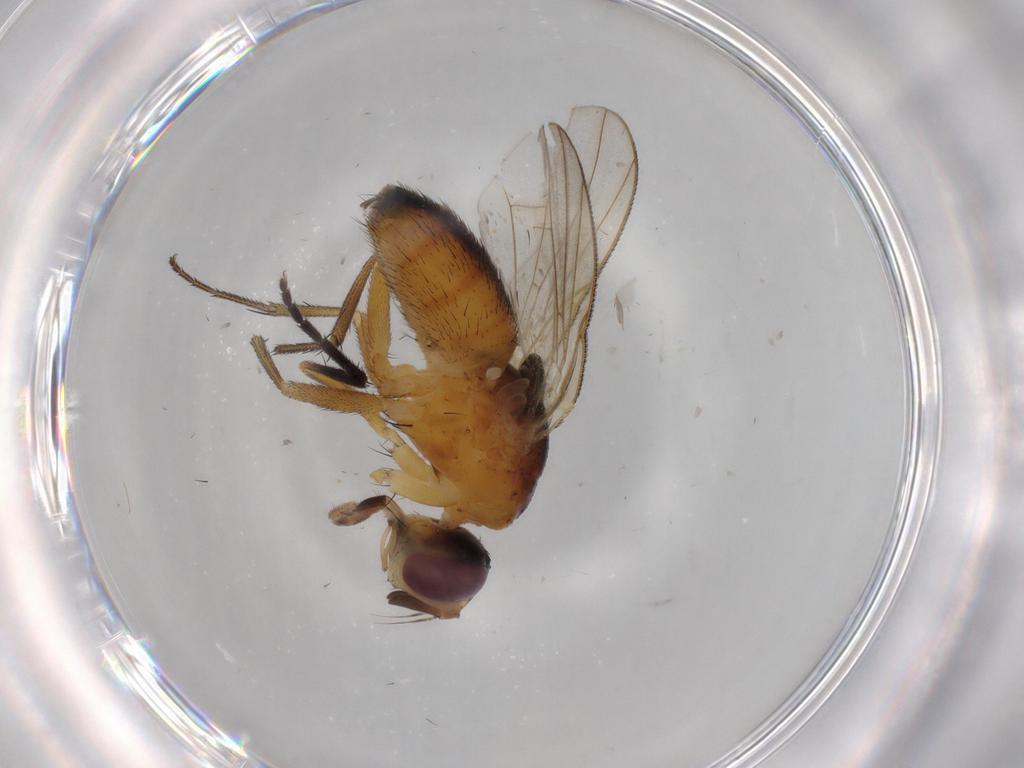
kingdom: Animalia
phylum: Arthropoda
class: Insecta
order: Diptera
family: Muscidae
